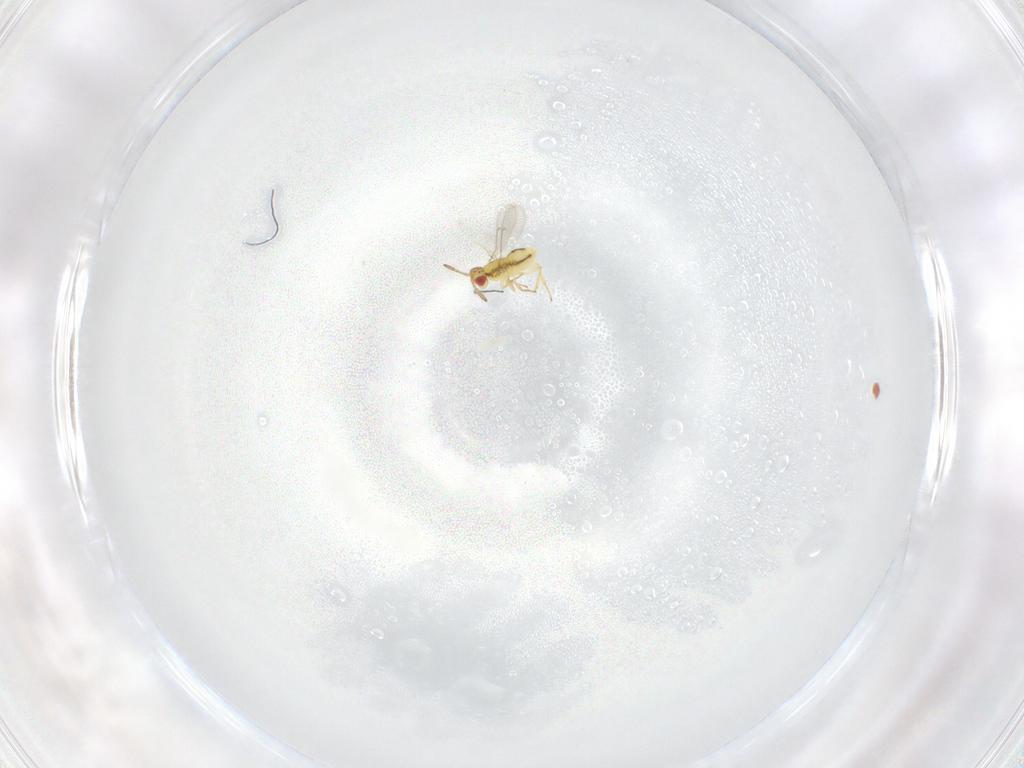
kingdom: Animalia
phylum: Arthropoda
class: Insecta
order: Hymenoptera
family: Aphelinidae
